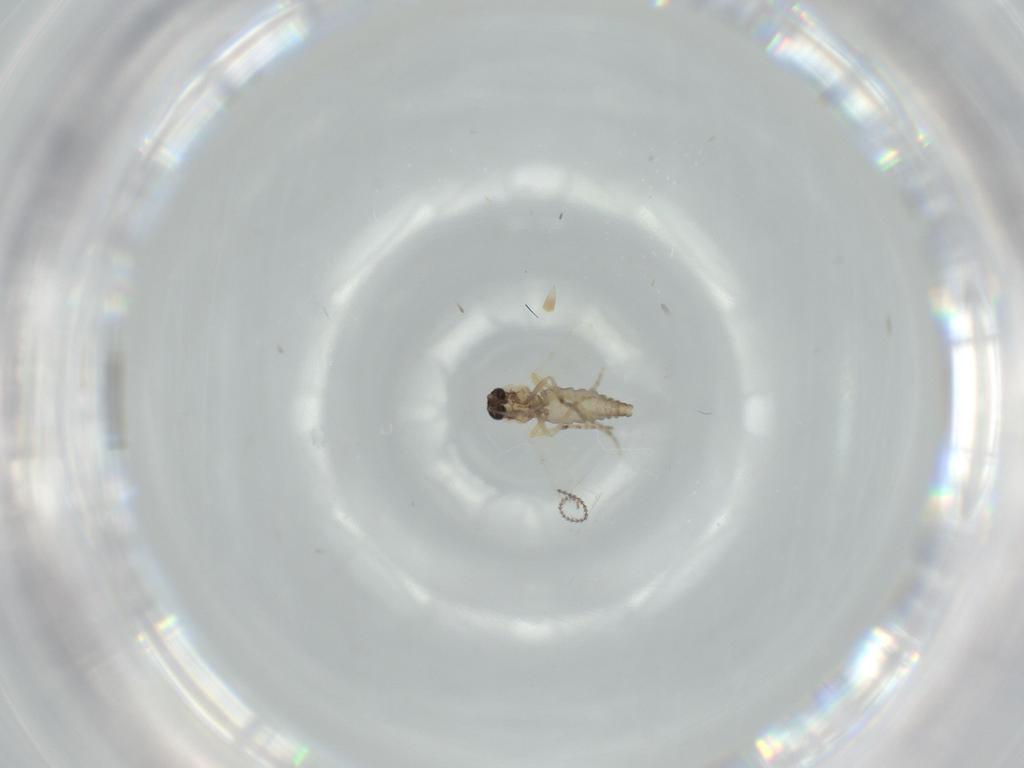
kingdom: Animalia
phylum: Arthropoda
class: Insecta
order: Diptera
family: Ceratopogonidae
